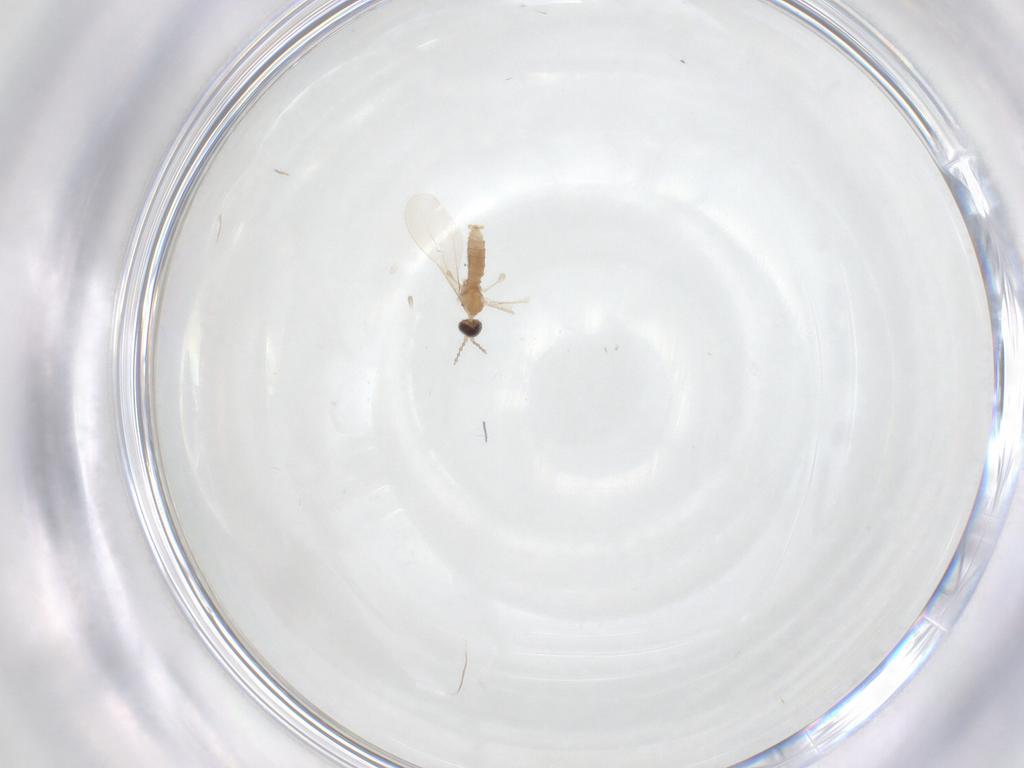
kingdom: Animalia
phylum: Arthropoda
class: Insecta
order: Diptera
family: Cecidomyiidae
